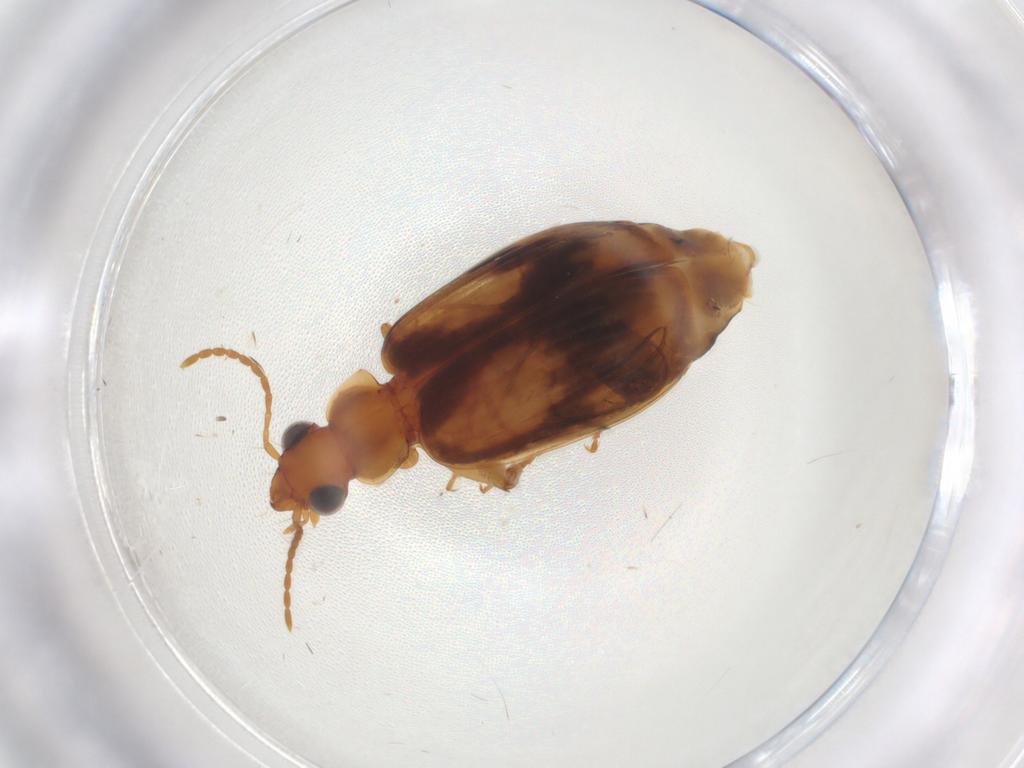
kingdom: Animalia
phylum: Arthropoda
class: Insecta
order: Coleoptera
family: Carabidae
